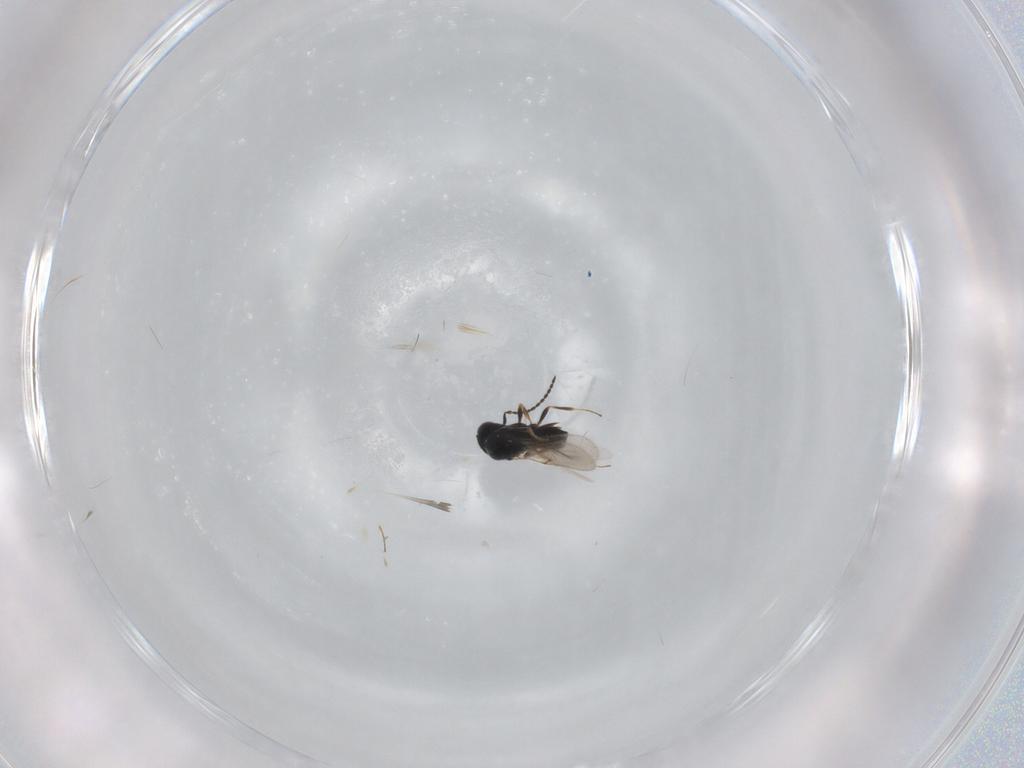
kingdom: Animalia
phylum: Arthropoda
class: Insecta
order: Hymenoptera
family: Scelionidae
